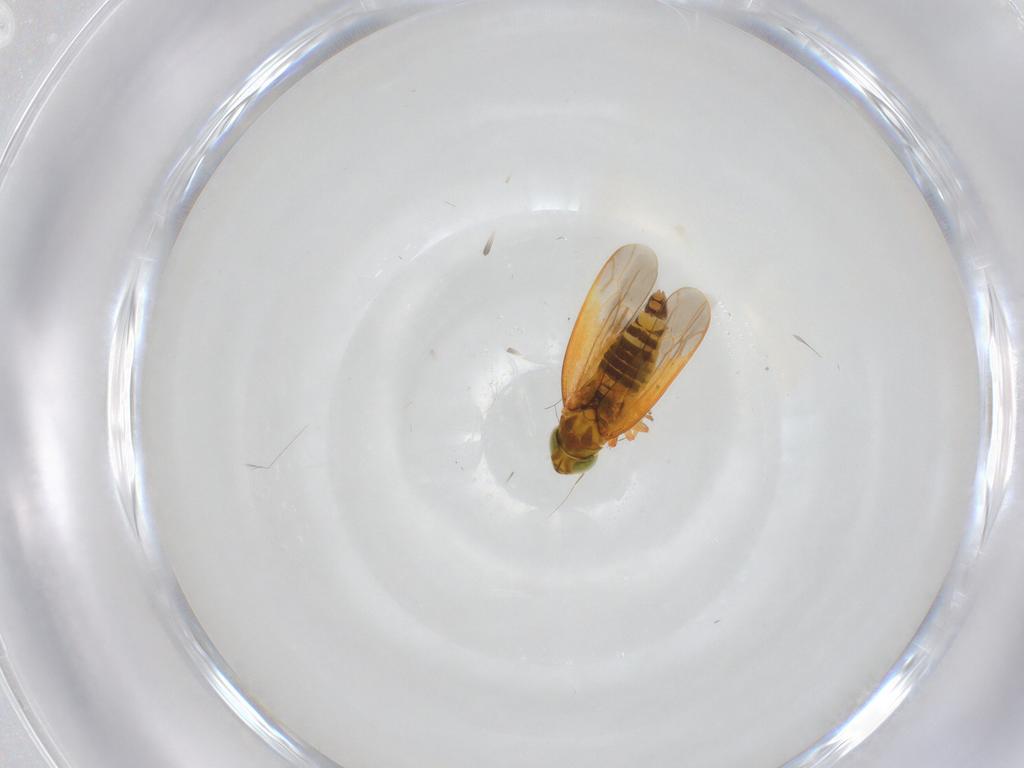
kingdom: Animalia
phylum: Arthropoda
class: Insecta
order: Hemiptera
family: Cicadellidae
